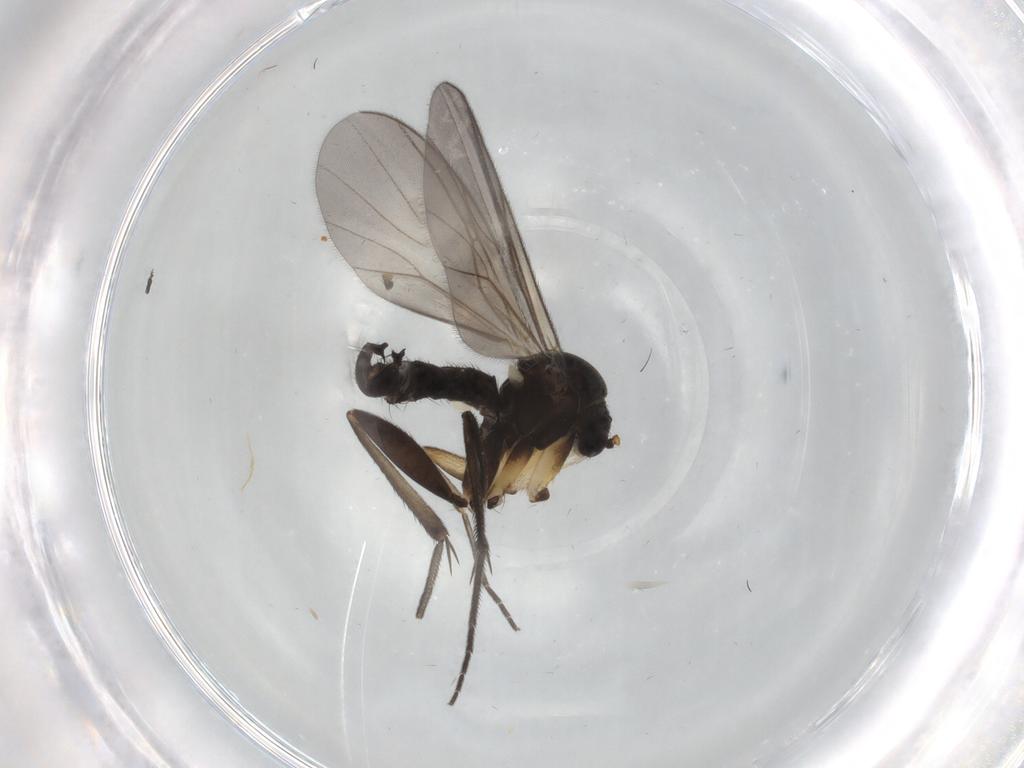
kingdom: Animalia
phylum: Arthropoda
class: Insecta
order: Diptera
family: Mycetophilidae
